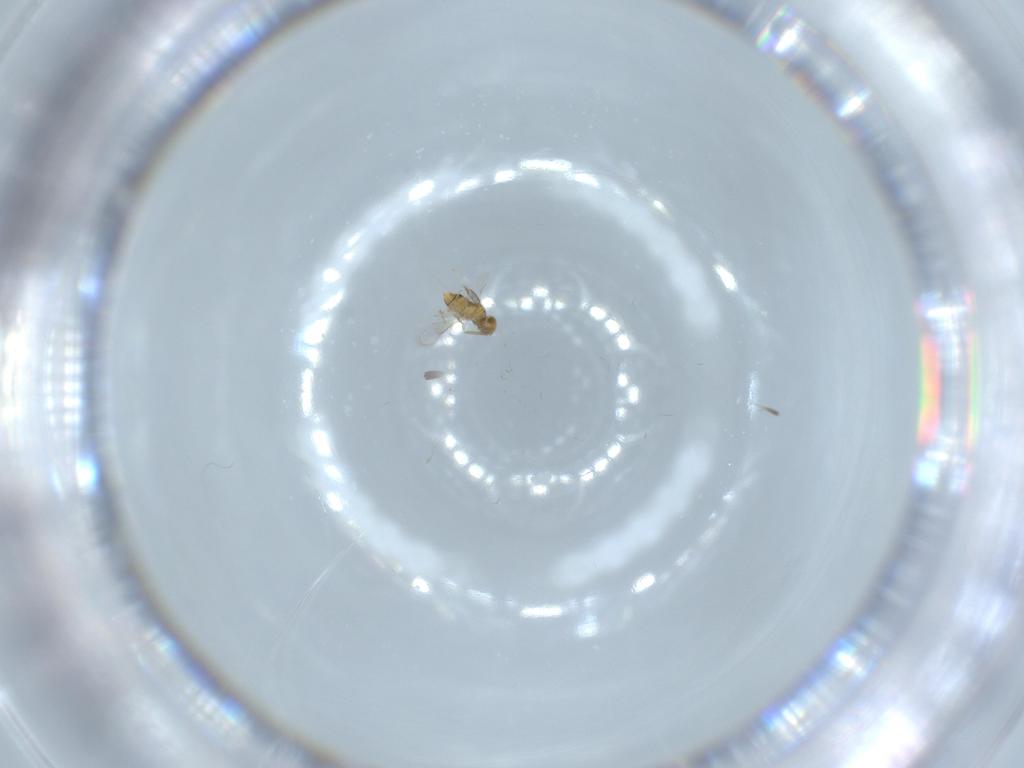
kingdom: Animalia
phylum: Arthropoda
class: Insecta
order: Hymenoptera
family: Aphelinidae
